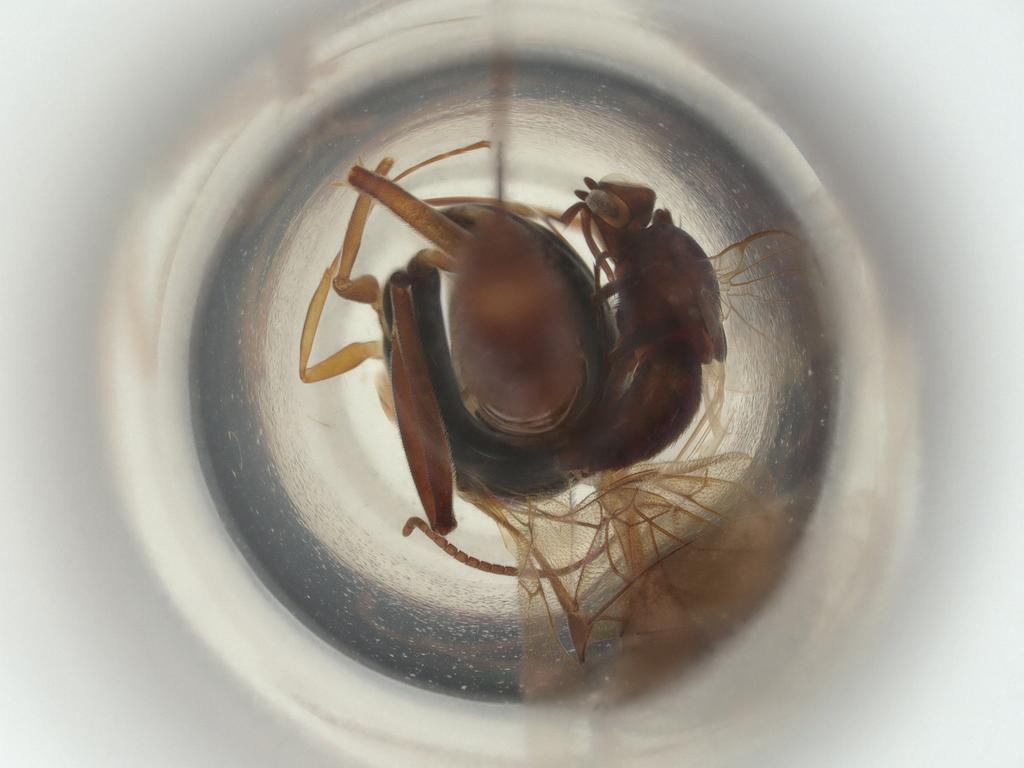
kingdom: Animalia
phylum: Arthropoda
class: Insecta
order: Hymenoptera
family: Ichneumonidae
